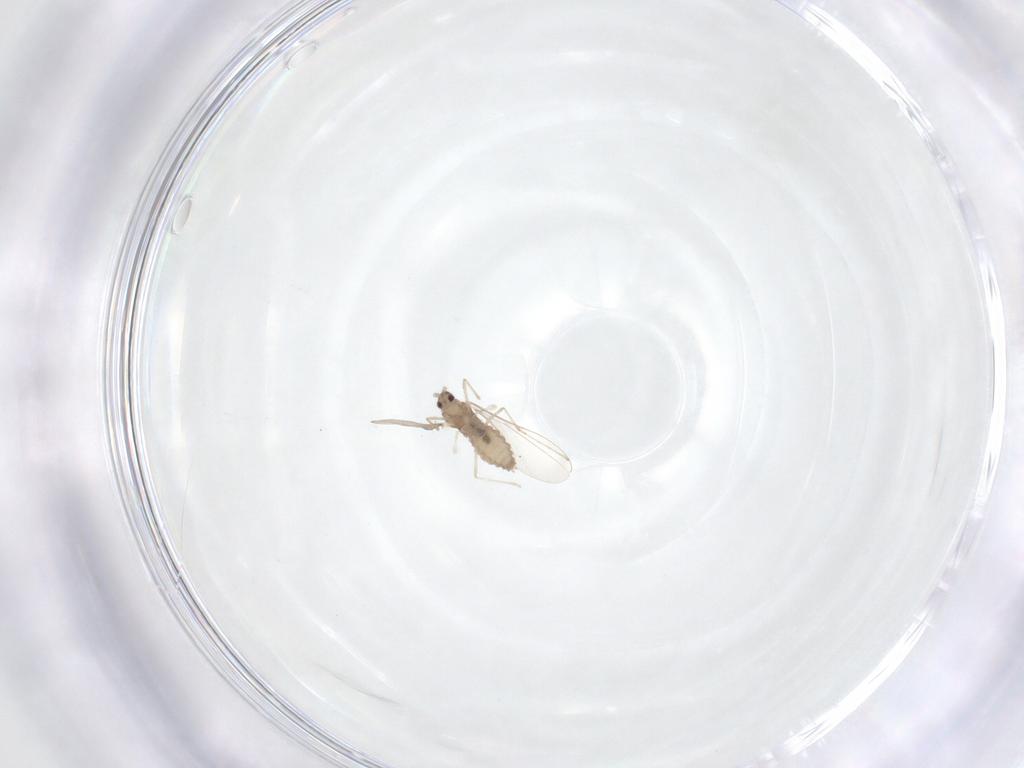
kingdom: Animalia
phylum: Arthropoda
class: Insecta
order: Diptera
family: Cecidomyiidae
